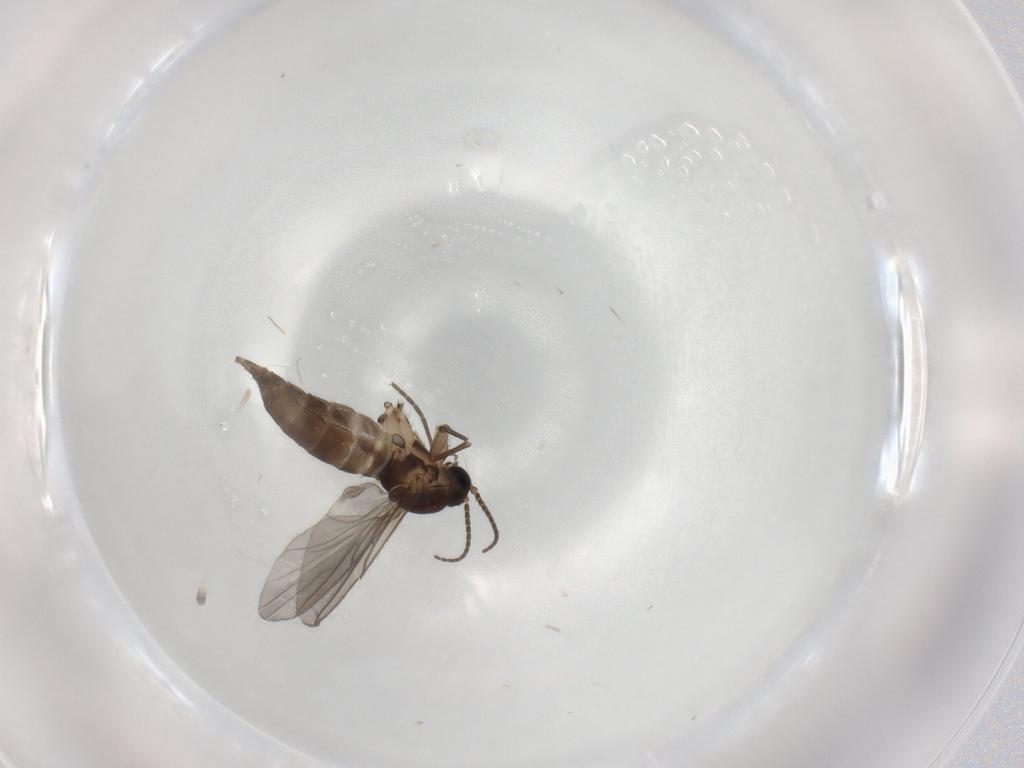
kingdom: Animalia
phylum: Arthropoda
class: Insecta
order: Diptera
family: Sciaridae
